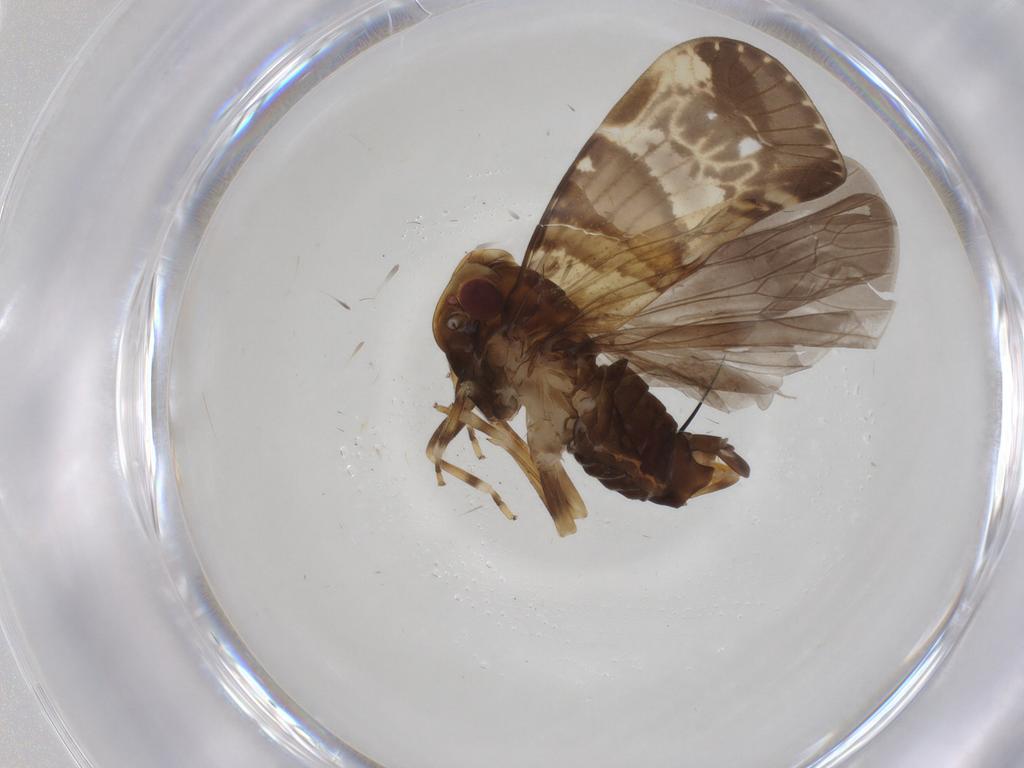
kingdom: Animalia
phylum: Arthropoda
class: Insecta
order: Hemiptera
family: Cixiidae
